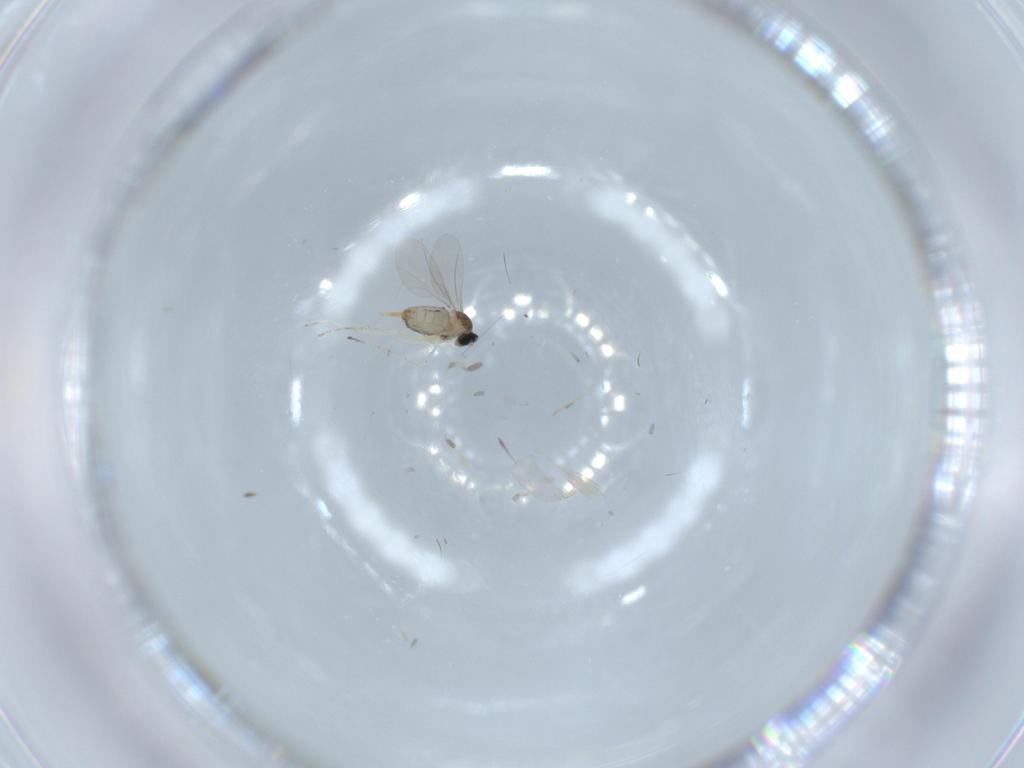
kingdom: Animalia
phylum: Arthropoda
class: Insecta
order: Diptera
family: Cecidomyiidae
